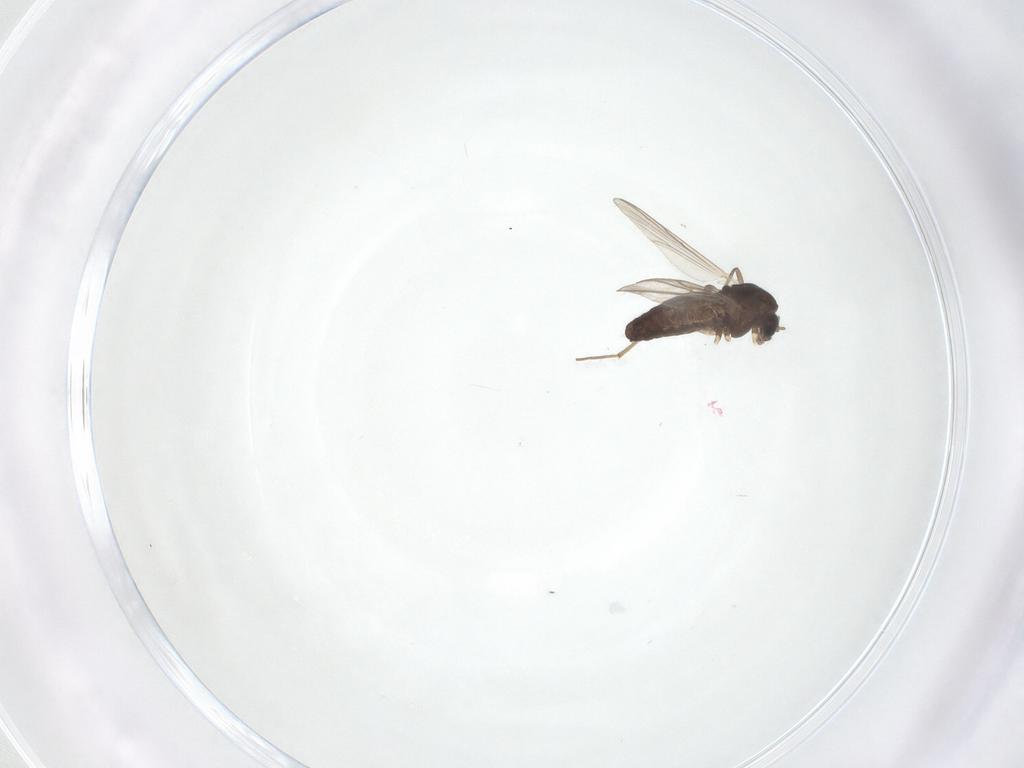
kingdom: Animalia
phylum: Arthropoda
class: Insecta
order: Diptera
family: Chironomidae
